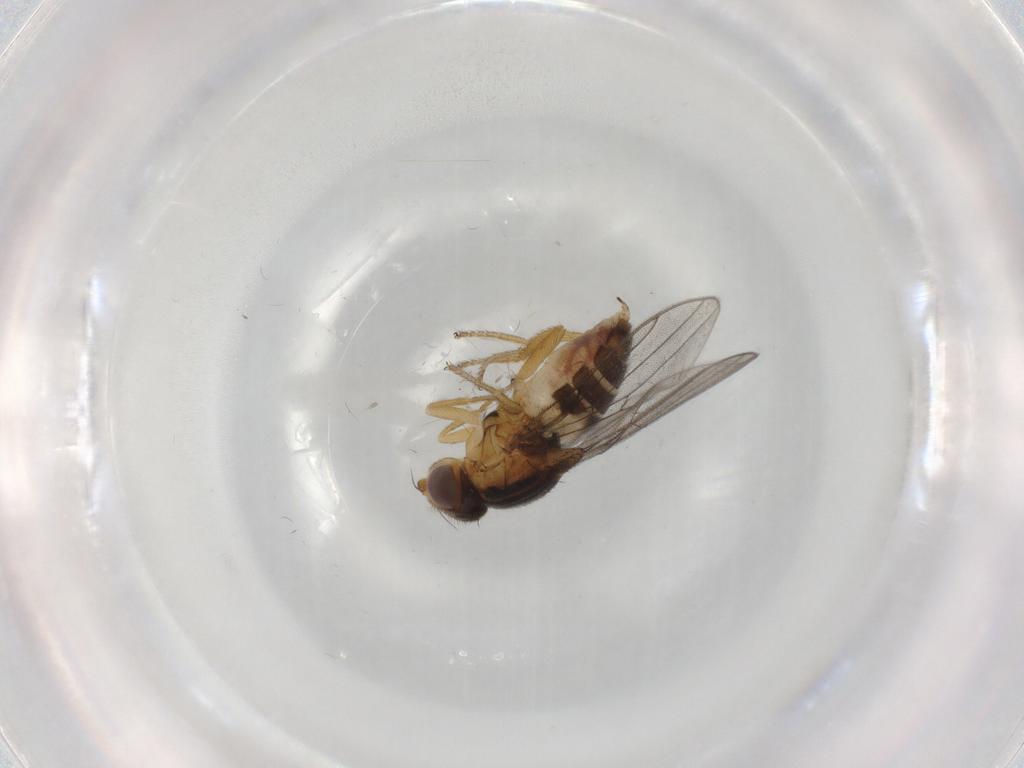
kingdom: Animalia
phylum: Arthropoda
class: Insecta
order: Diptera
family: Chloropidae
